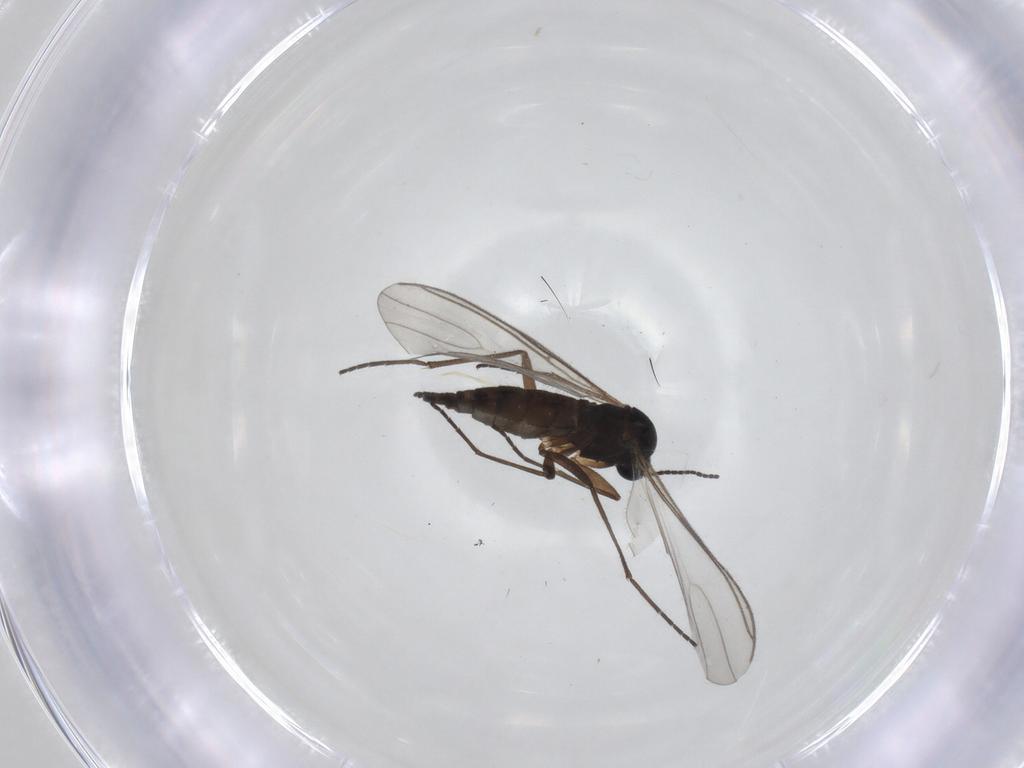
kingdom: Animalia
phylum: Arthropoda
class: Insecta
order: Diptera
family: Sciaridae
